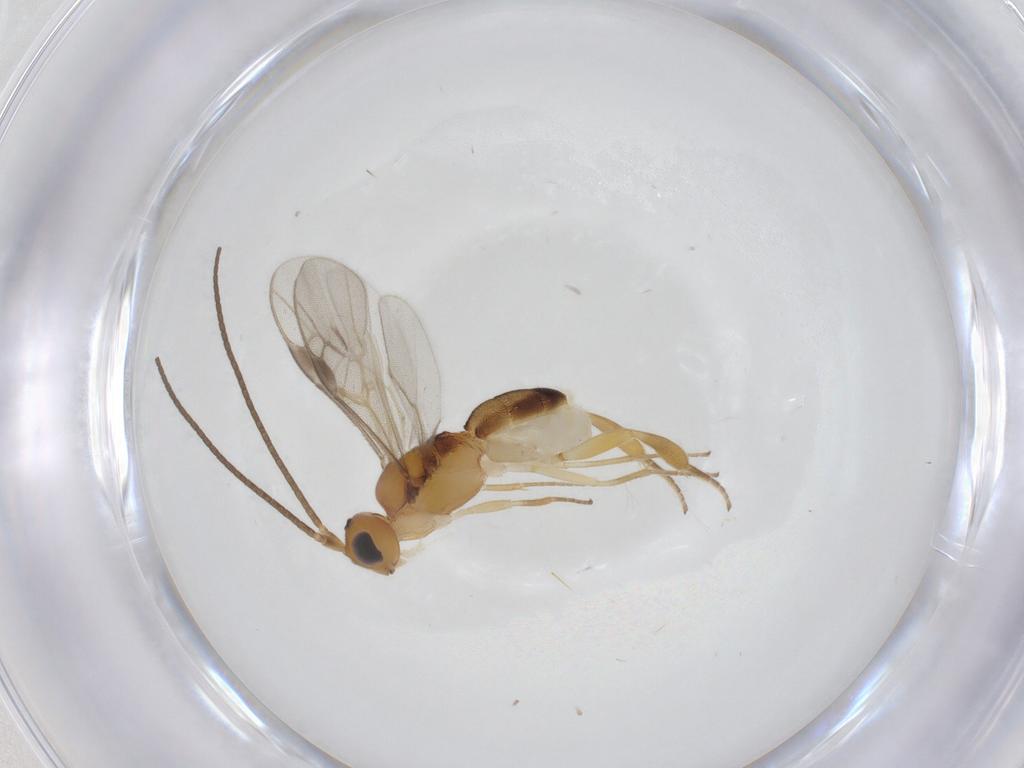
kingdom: Animalia
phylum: Arthropoda
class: Insecta
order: Hymenoptera
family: Braconidae
